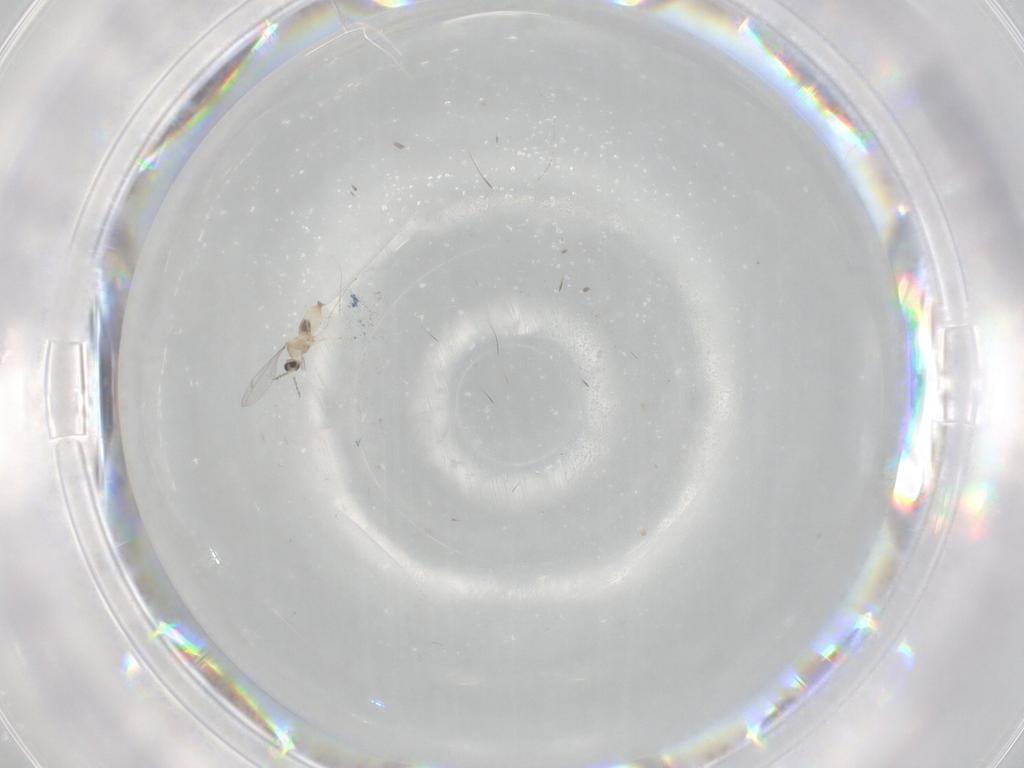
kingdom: Animalia
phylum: Arthropoda
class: Insecta
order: Diptera
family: Cecidomyiidae
